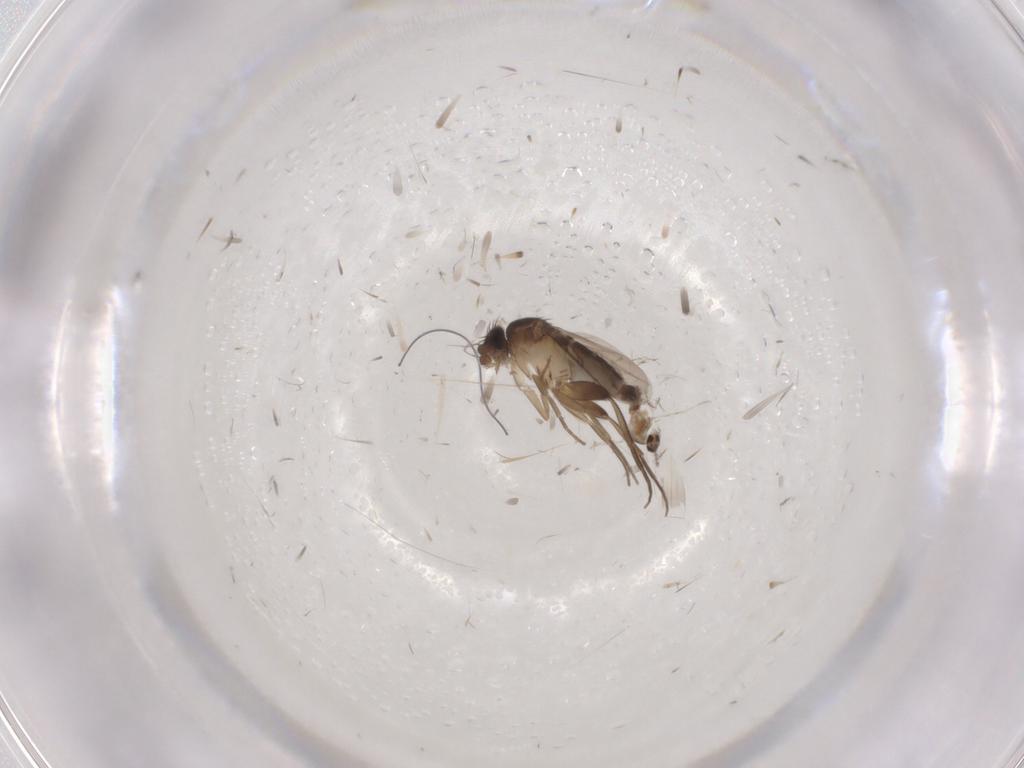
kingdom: Animalia
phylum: Arthropoda
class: Insecta
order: Diptera
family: Phoridae
